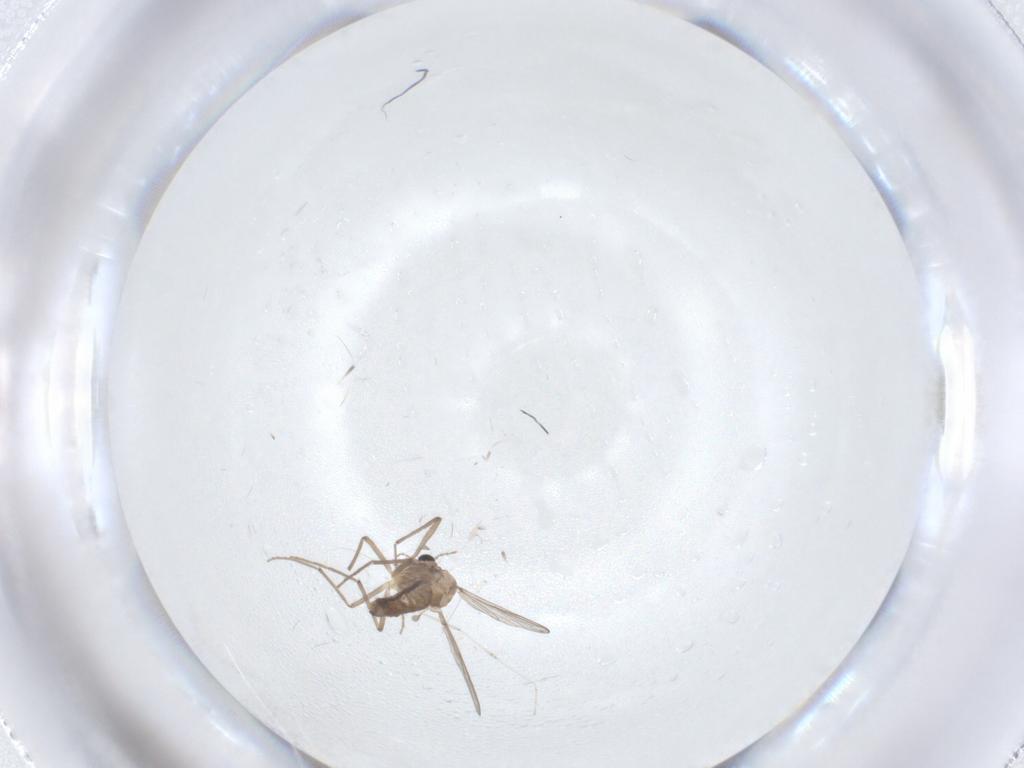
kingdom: Animalia
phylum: Arthropoda
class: Insecta
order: Diptera
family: Cecidomyiidae
